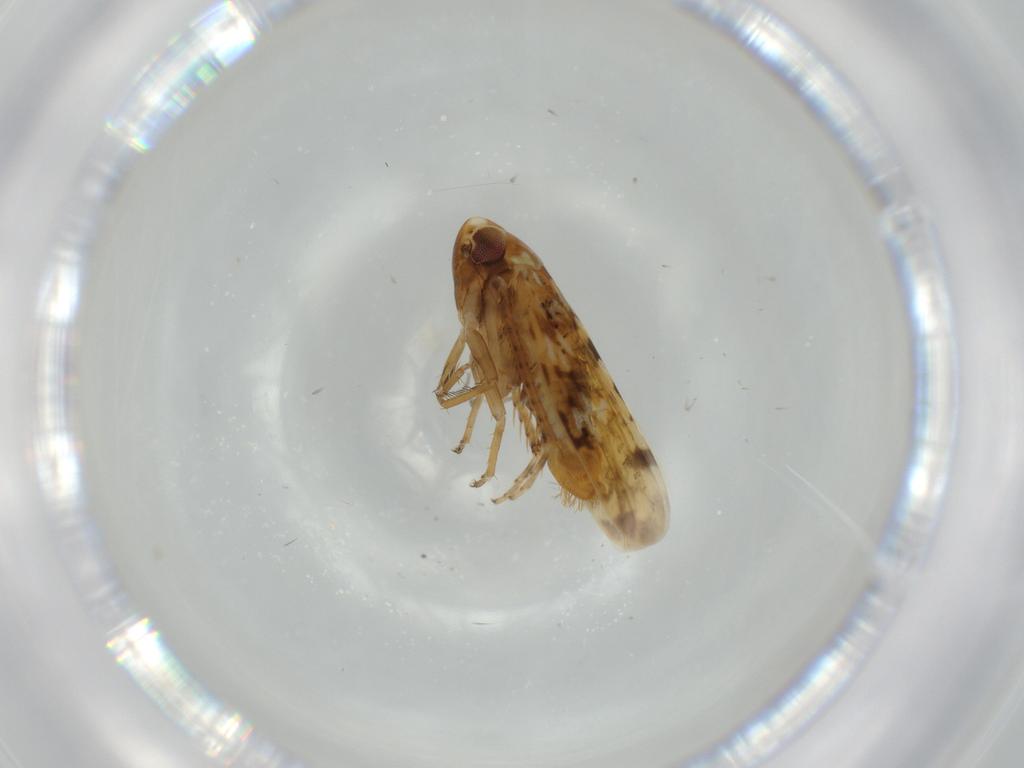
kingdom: Animalia
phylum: Arthropoda
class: Insecta
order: Hemiptera
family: Cicadellidae
